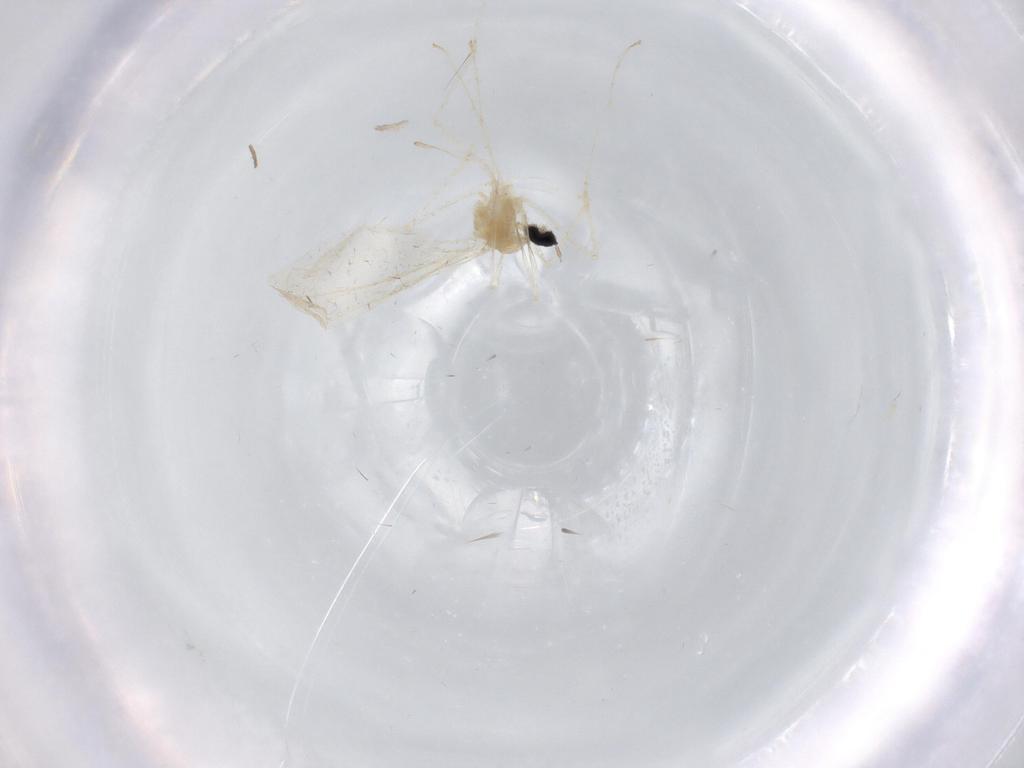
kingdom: Animalia
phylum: Arthropoda
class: Insecta
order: Diptera
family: Cecidomyiidae
